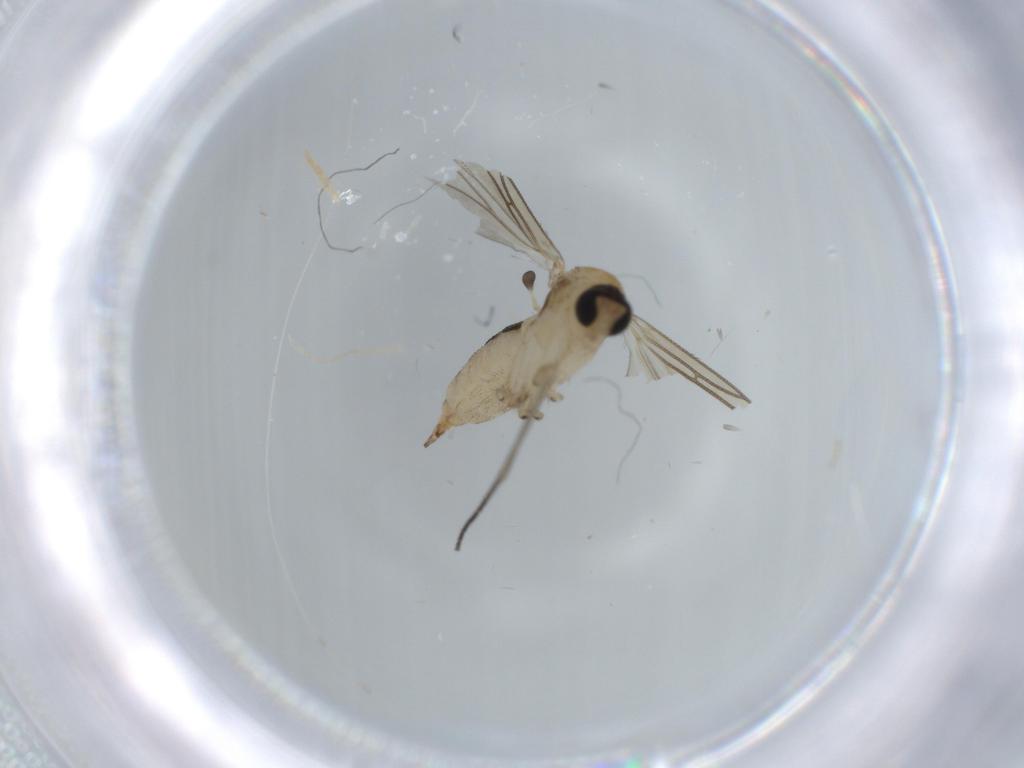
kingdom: Animalia
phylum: Arthropoda
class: Insecta
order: Diptera
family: Sciaridae
